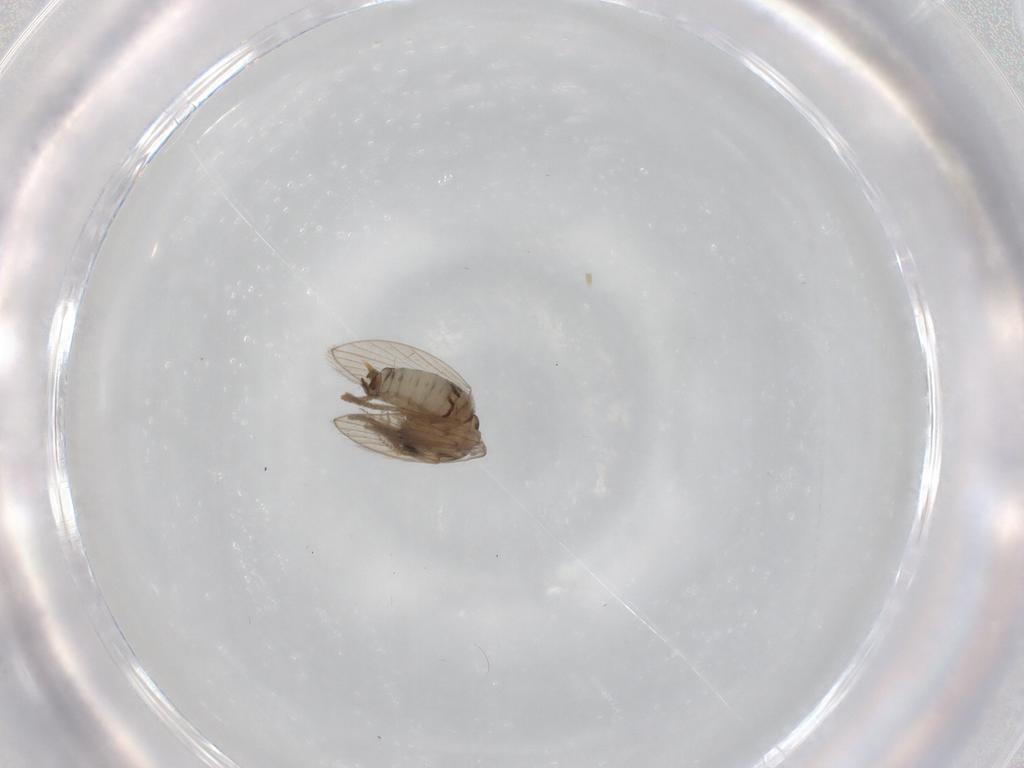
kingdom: Animalia
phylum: Arthropoda
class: Insecta
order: Diptera
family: Psychodidae
